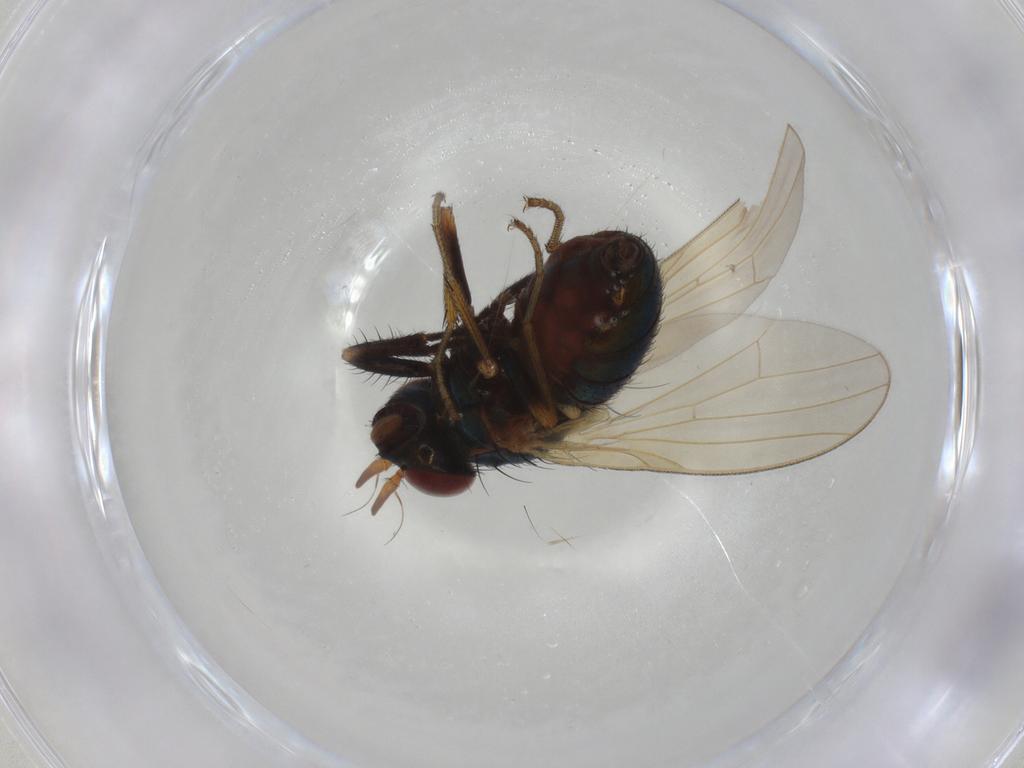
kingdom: Animalia
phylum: Arthropoda
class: Insecta
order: Diptera
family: Lauxaniidae
